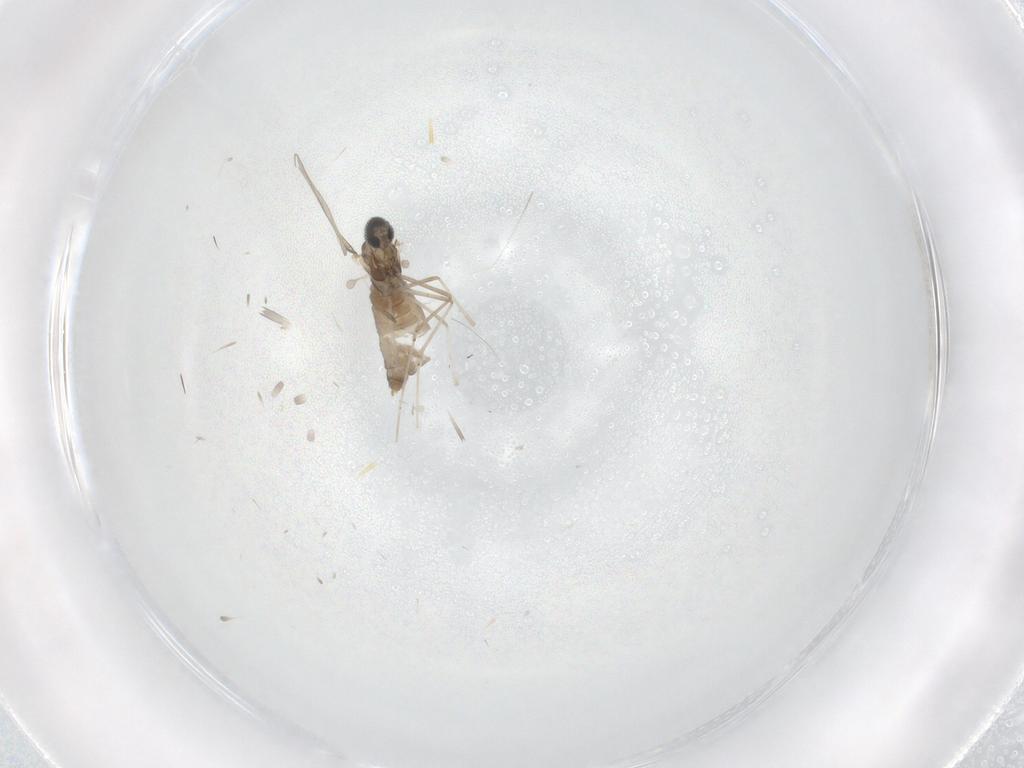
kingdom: Animalia
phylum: Arthropoda
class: Insecta
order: Diptera
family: Cecidomyiidae
